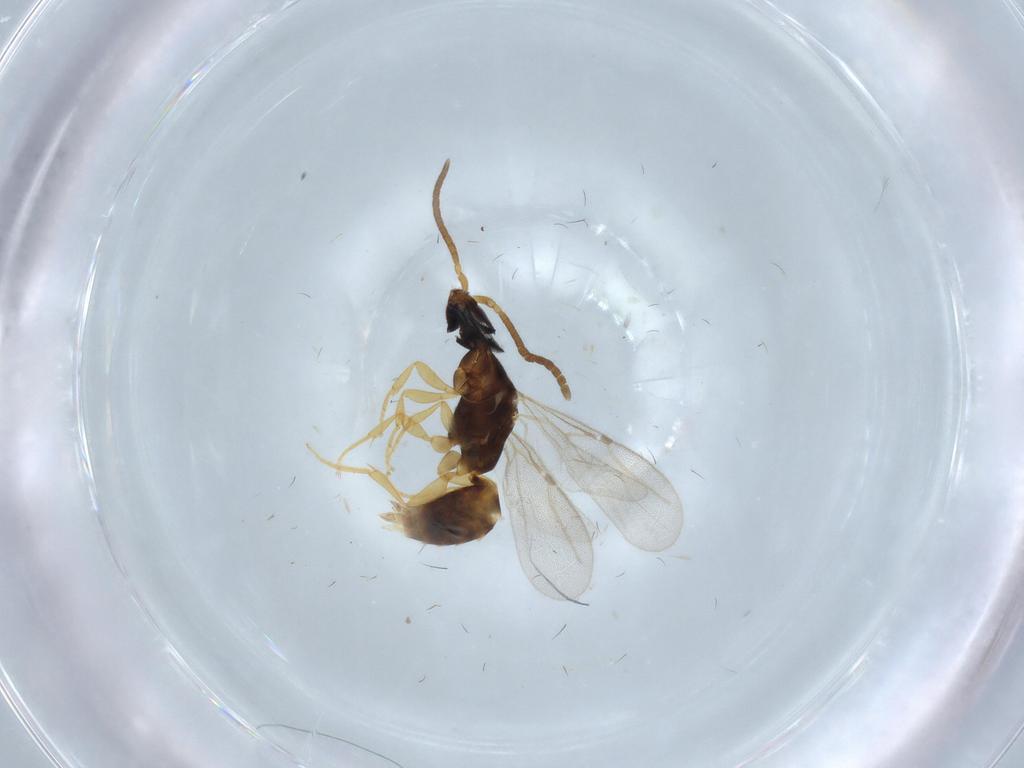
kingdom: Animalia
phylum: Arthropoda
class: Insecta
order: Hymenoptera
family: Bethylidae
